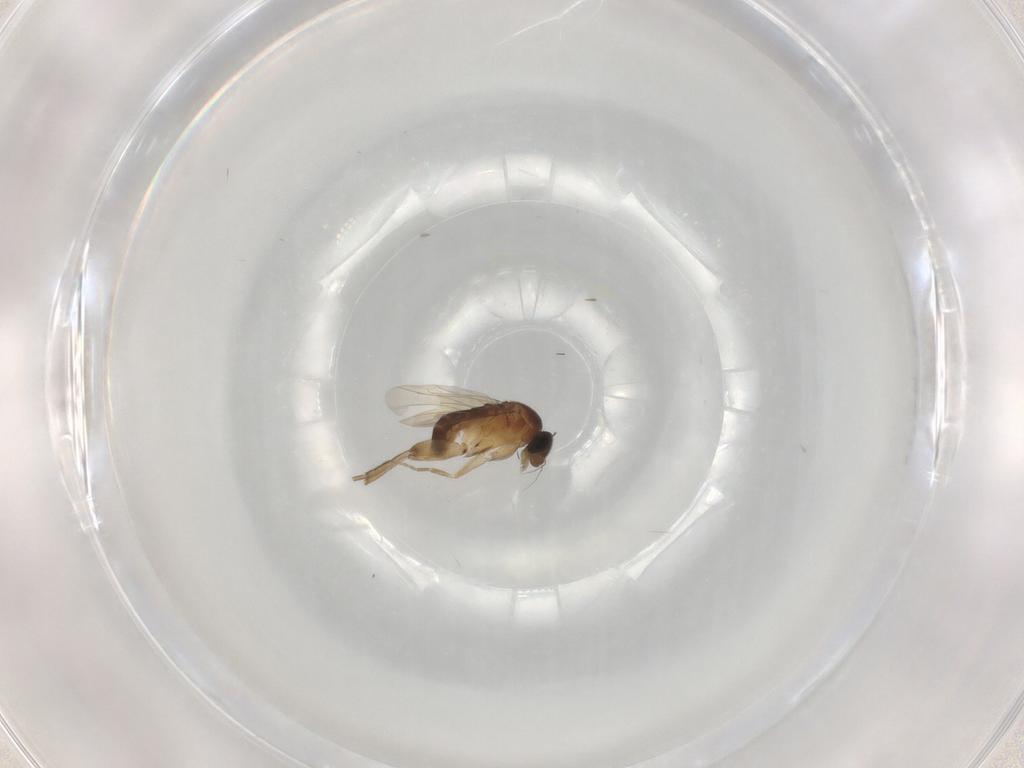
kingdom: Animalia
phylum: Arthropoda
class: Insecta
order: Diptera
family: Phoridae
